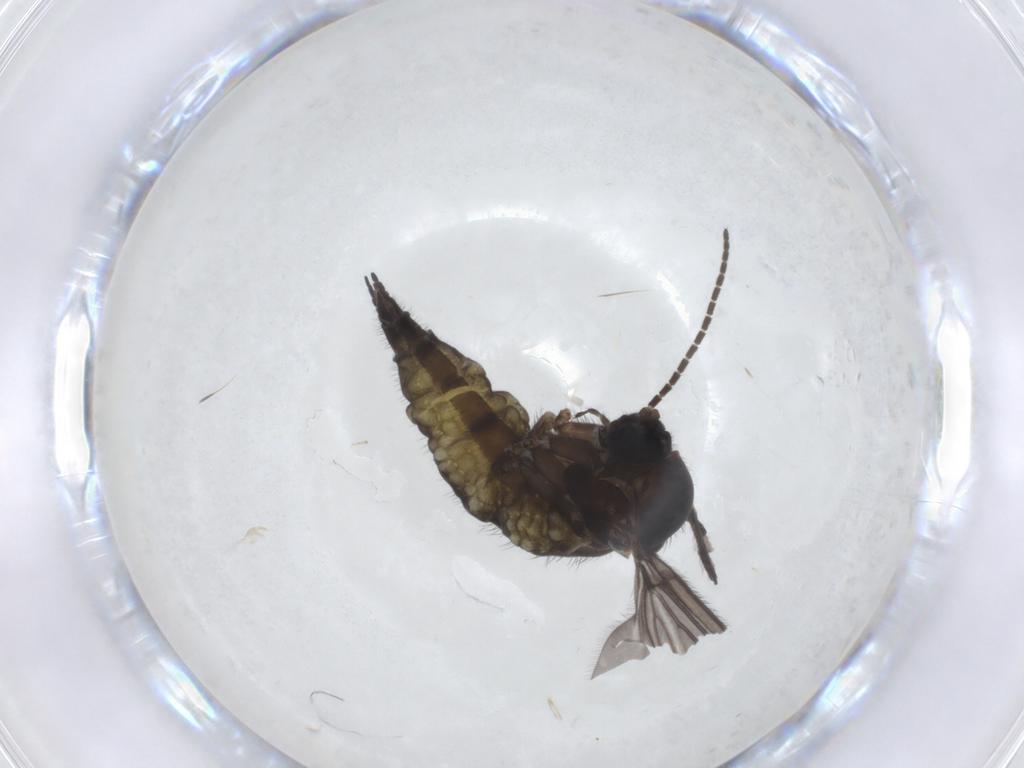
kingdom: Animalia
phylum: Arthropoda
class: Insecta
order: Diptera
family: Sciaridae
